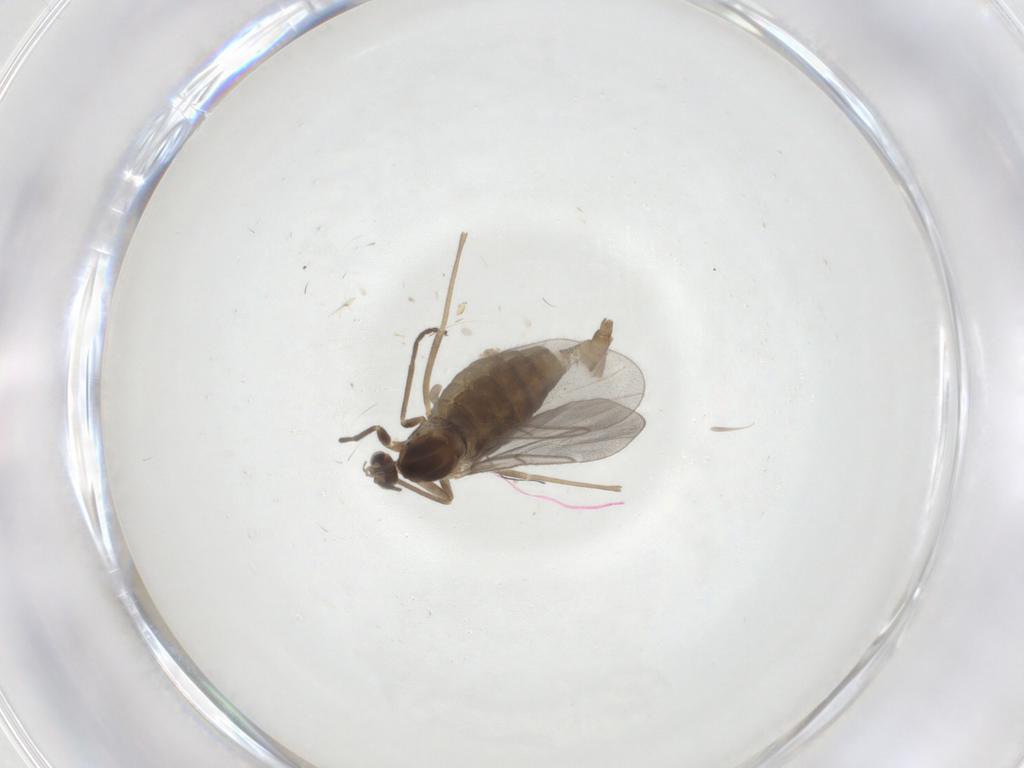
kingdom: Animalia
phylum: Arthropoda
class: Insecta
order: Diptera
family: Cecidomyiidae
